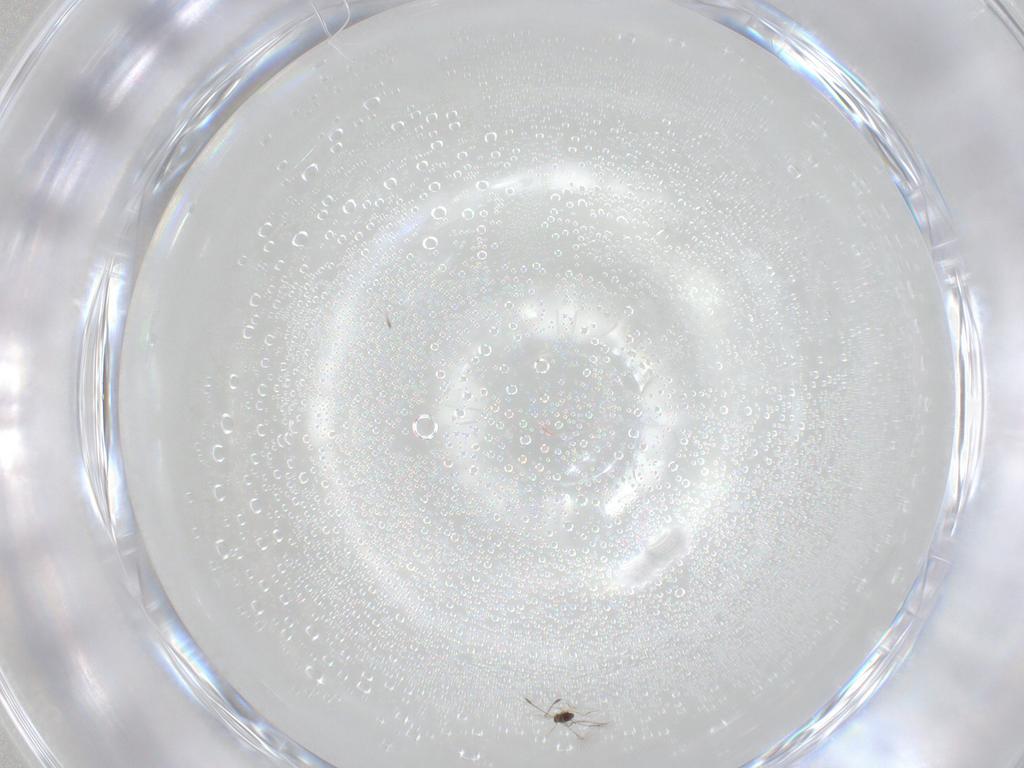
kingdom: Animalia
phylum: Arthropoda
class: Insecta
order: Hymenoptera
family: Mymaridae
